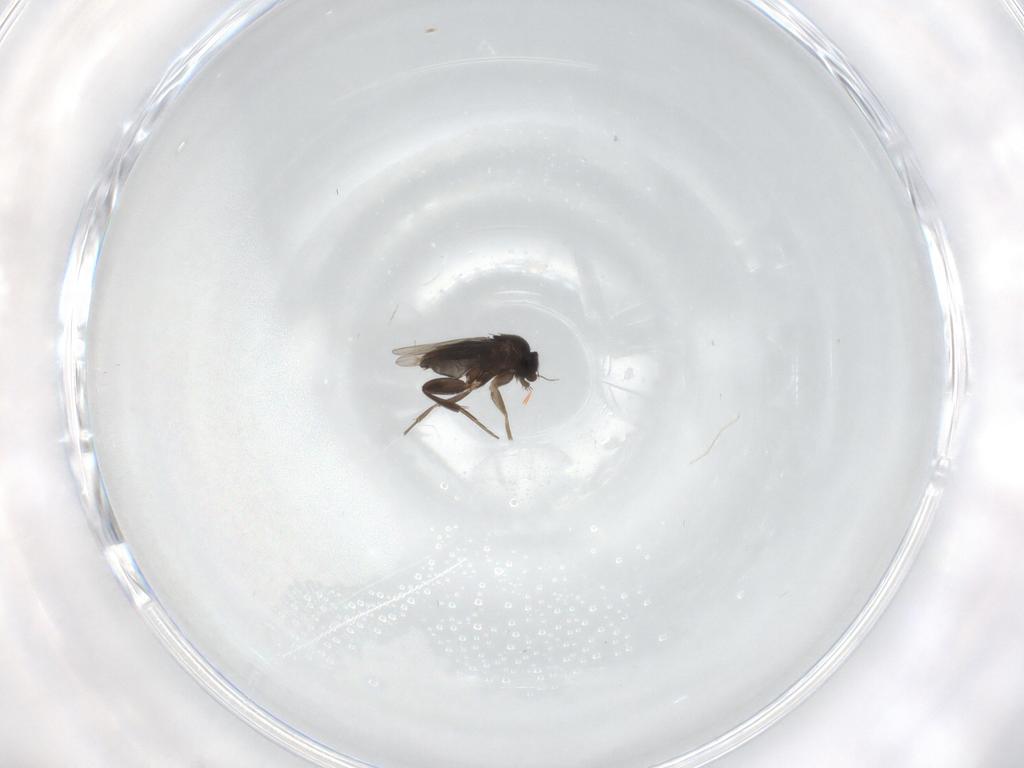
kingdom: Animalia
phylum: Arthropoda
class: Insecta
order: Diptera
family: Phoridae
